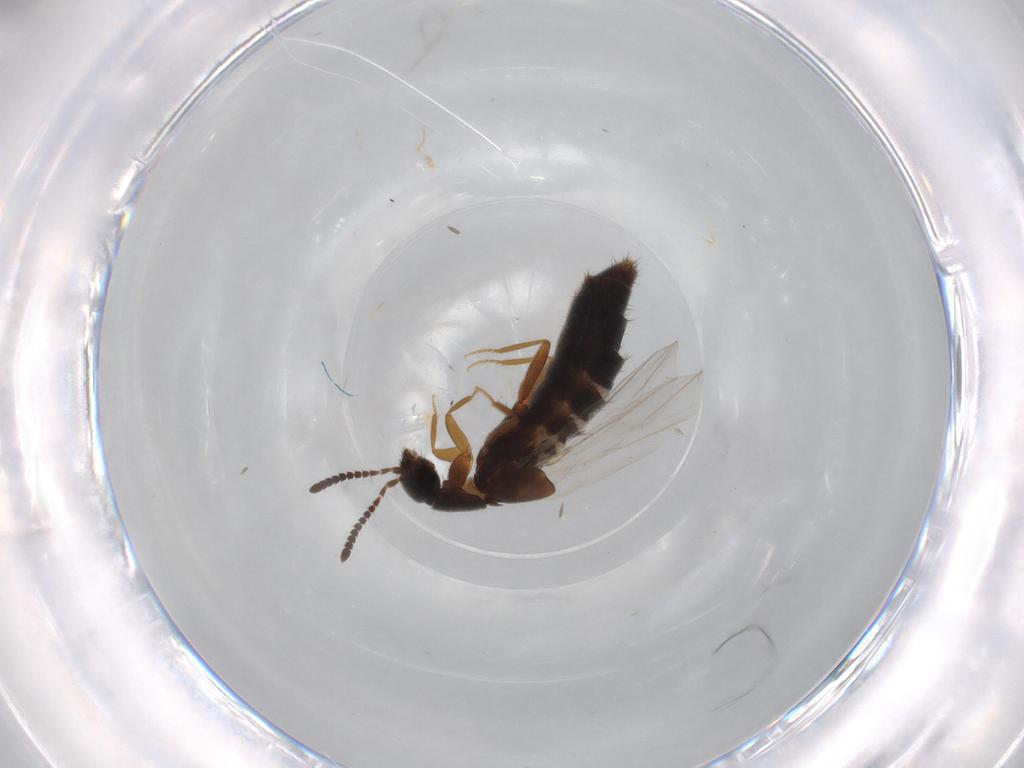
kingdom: Animalia
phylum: Arthropoda
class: Insecta
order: Coleoptera
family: Staphylinidae
